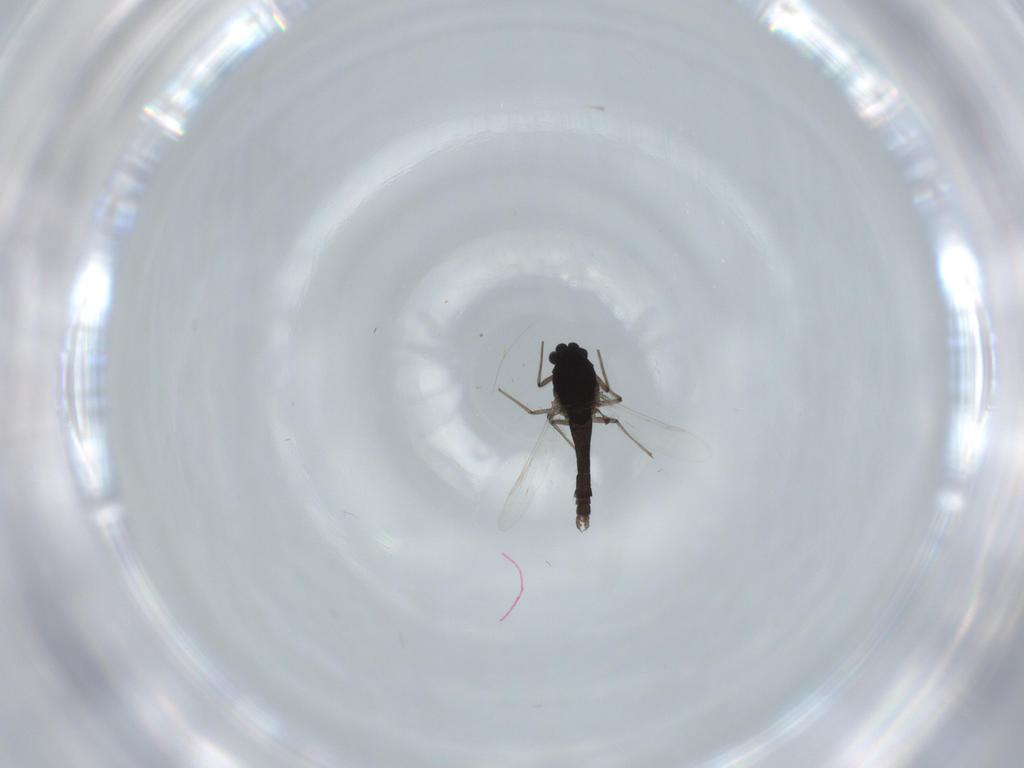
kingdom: Animalia
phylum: Arthropoda
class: Insecta
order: Diptera
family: Chironomidae
